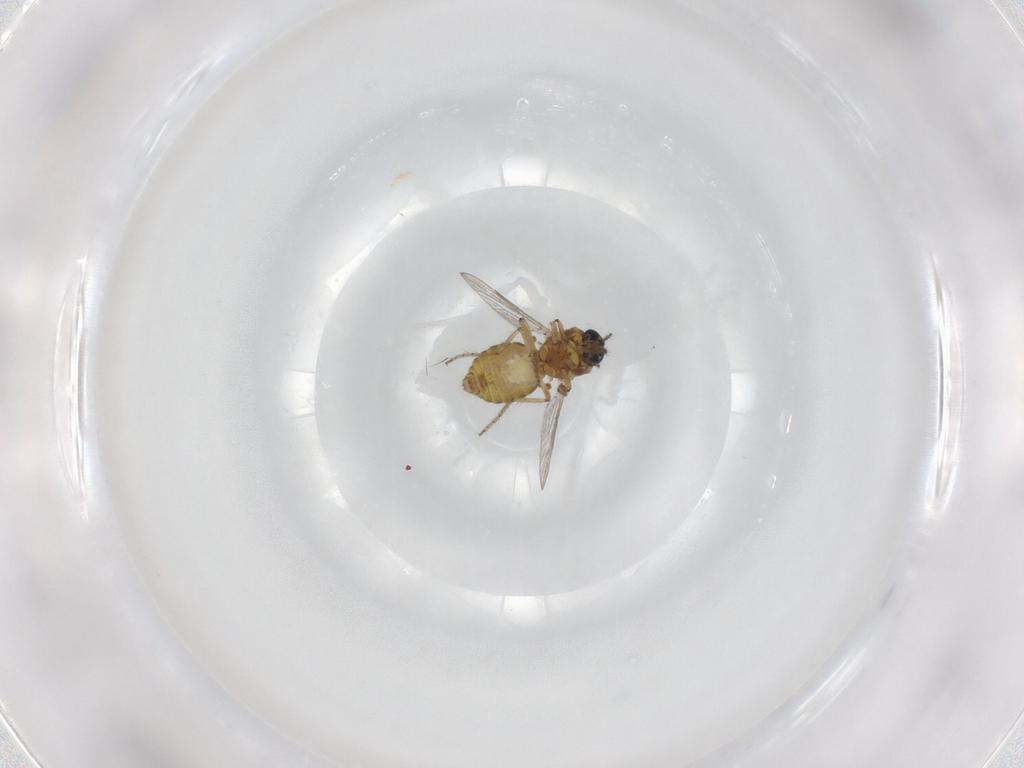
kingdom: Animalia
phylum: Arthropoda
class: Insecta
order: Diptera
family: Ceratopogonidae
